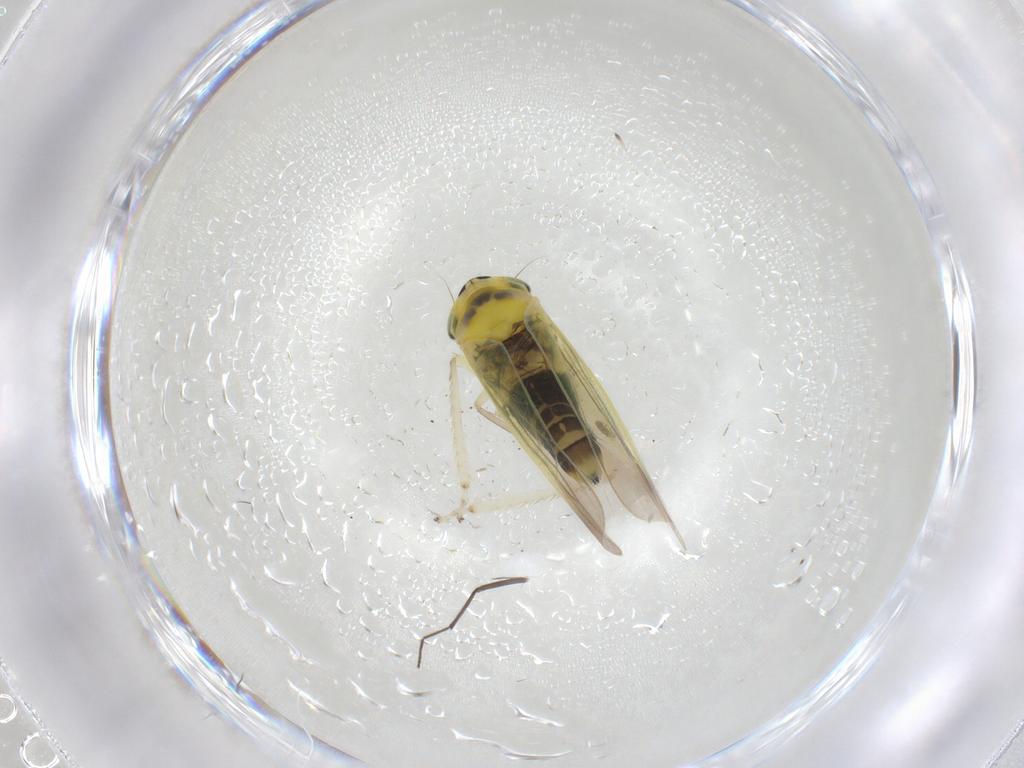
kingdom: Animalia
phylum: Arthropoda
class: Insecta
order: Hemiptera
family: Cicadellidae
